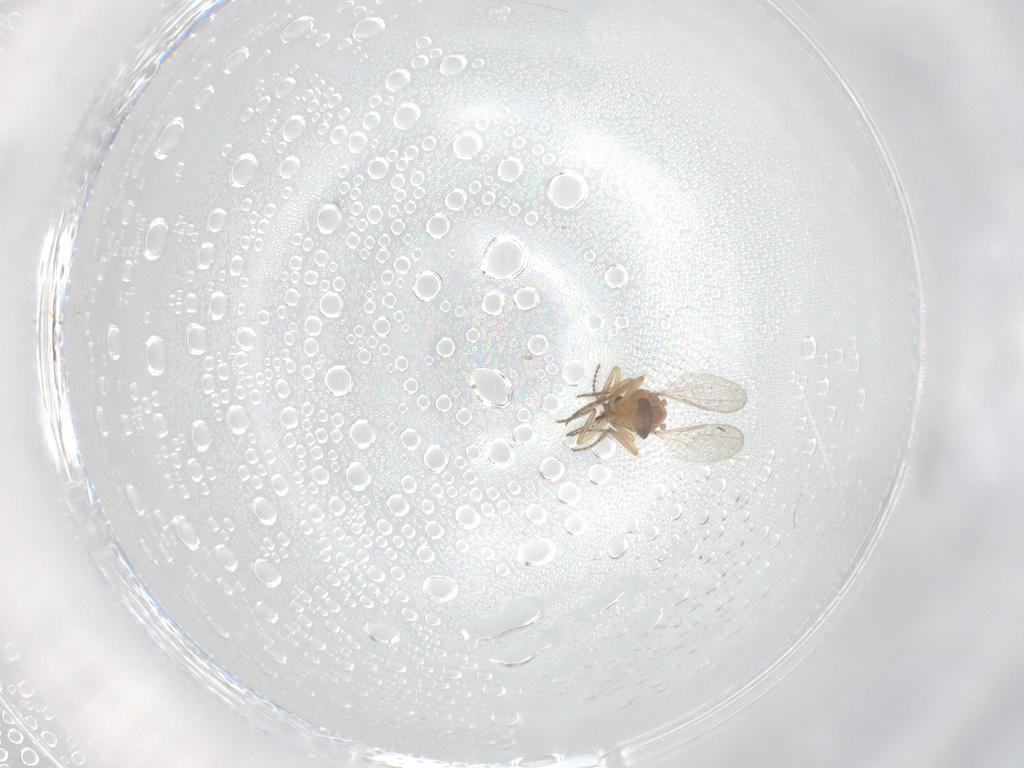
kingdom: Animalia
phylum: Arthropoda
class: Insecta
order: Diptera
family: Ceratopogonidae
